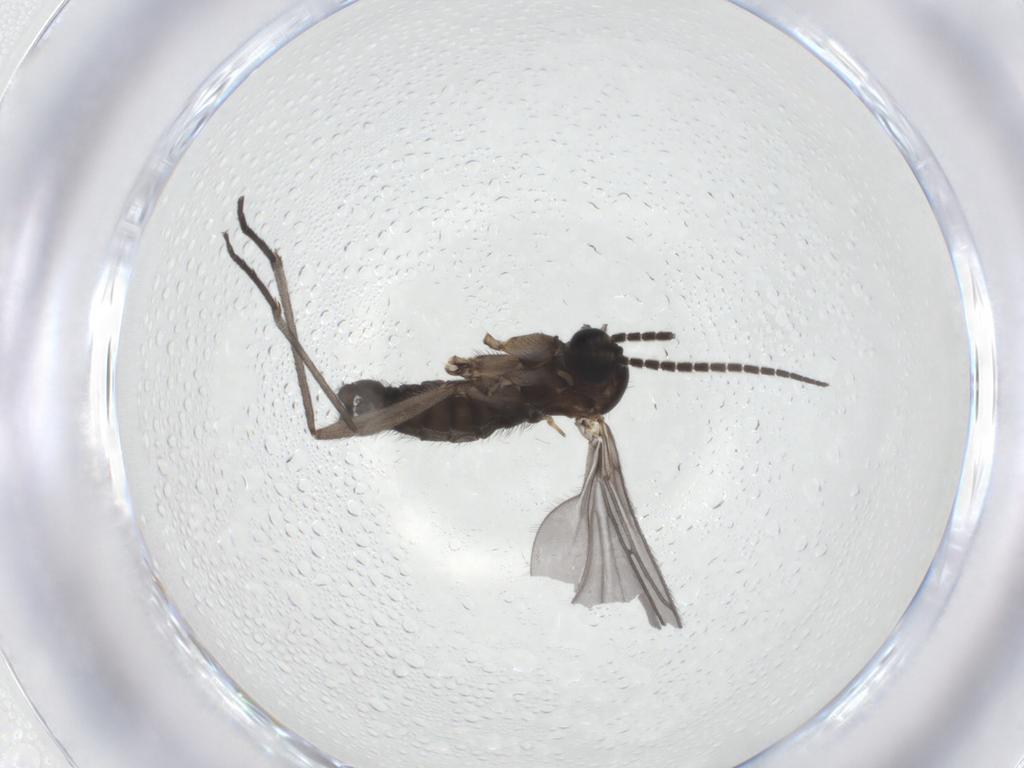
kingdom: Animalia
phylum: Arthropoda
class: Insecta
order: Diptera
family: Sciaridae
